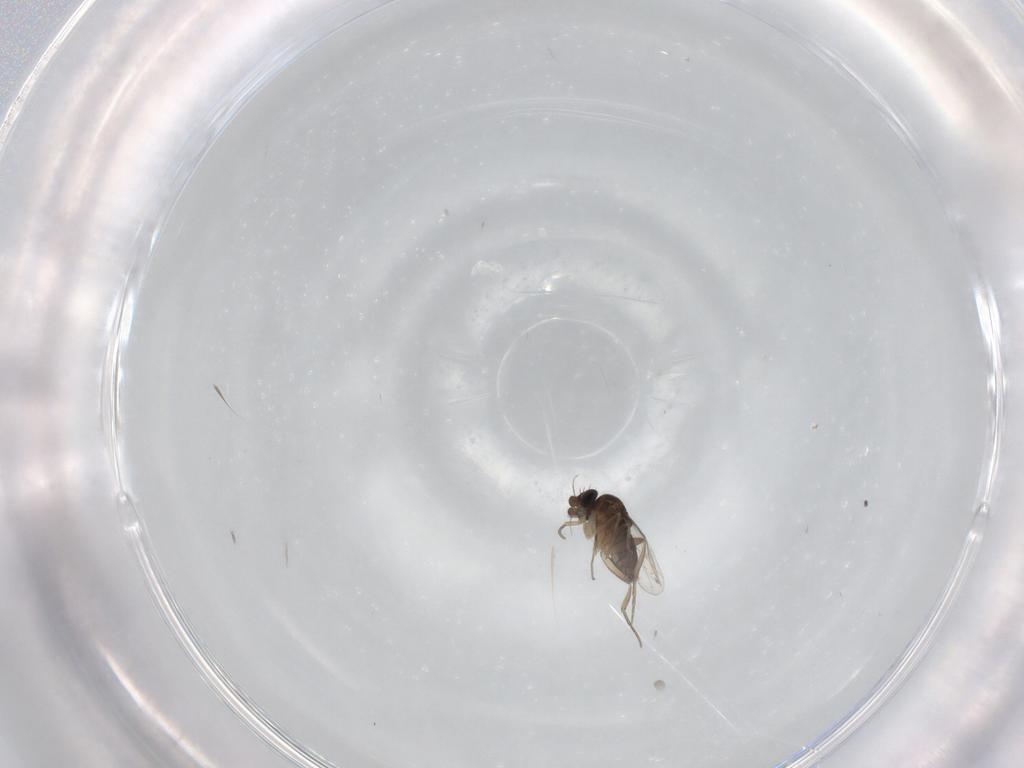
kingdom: Animalia
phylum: Arthropoda
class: Insecta
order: Diptera
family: Phoridae
